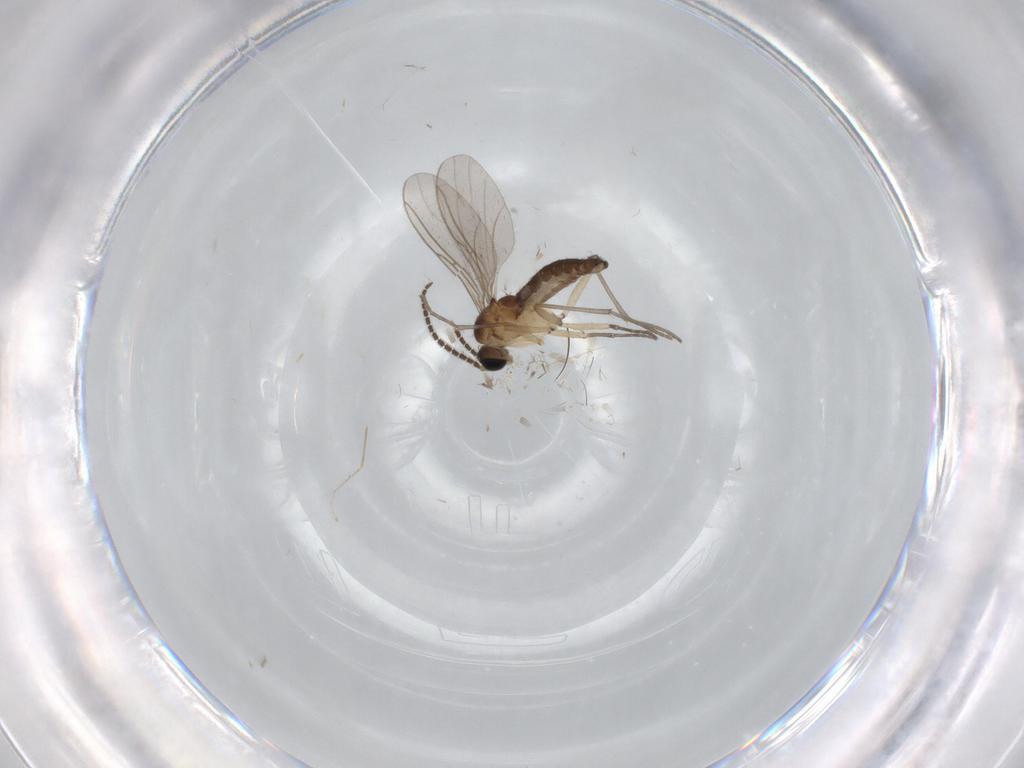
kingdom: Animalia
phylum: Arthropoda
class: Insecta
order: Diptera
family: Sciaridae
